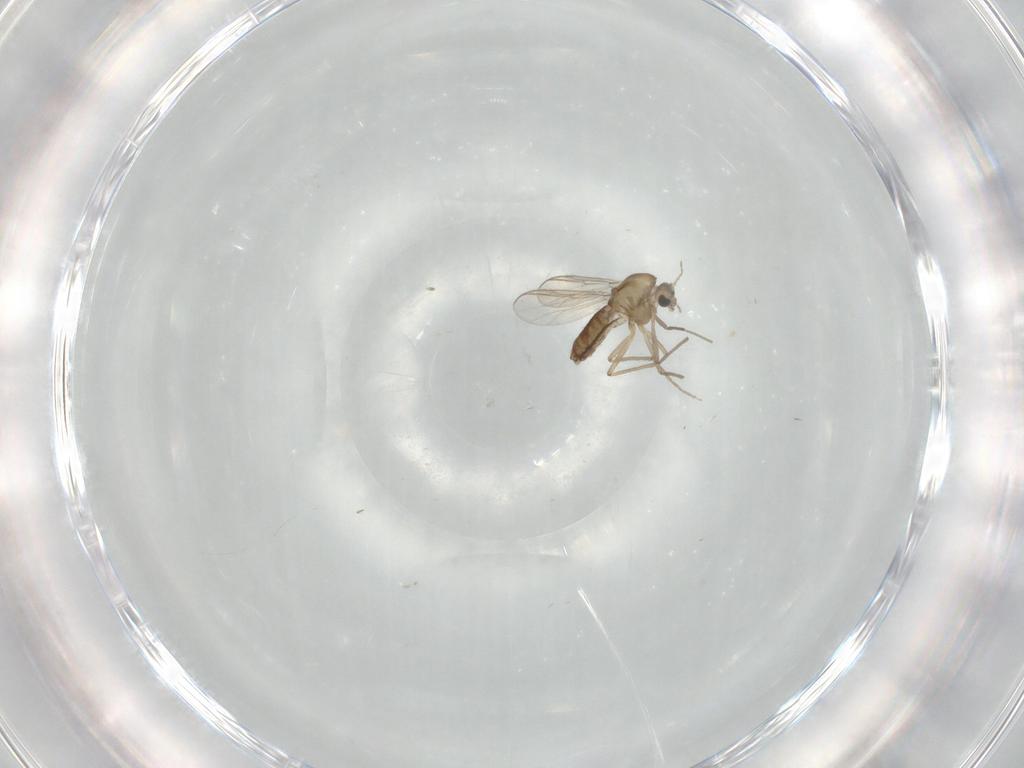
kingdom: Animalia
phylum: Arthropoda
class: Insecta
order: Diptera
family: Chironomidae
